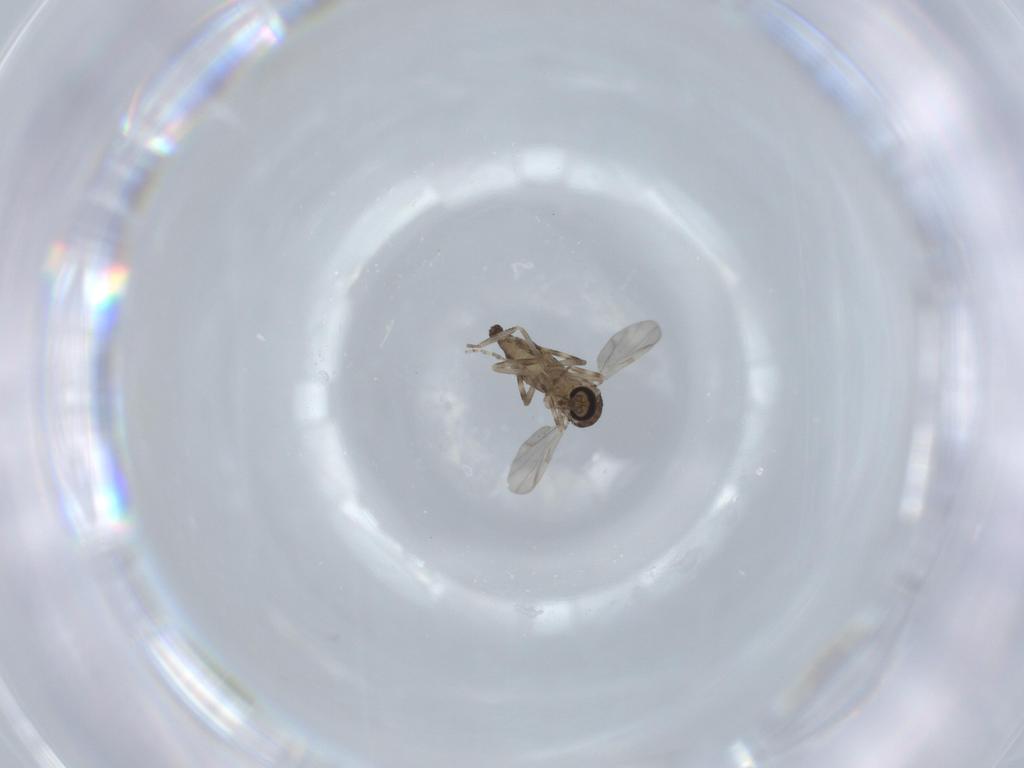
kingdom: Animalia
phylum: Arthropoda
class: Insecta
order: Diptera
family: Ceratopogonidae
